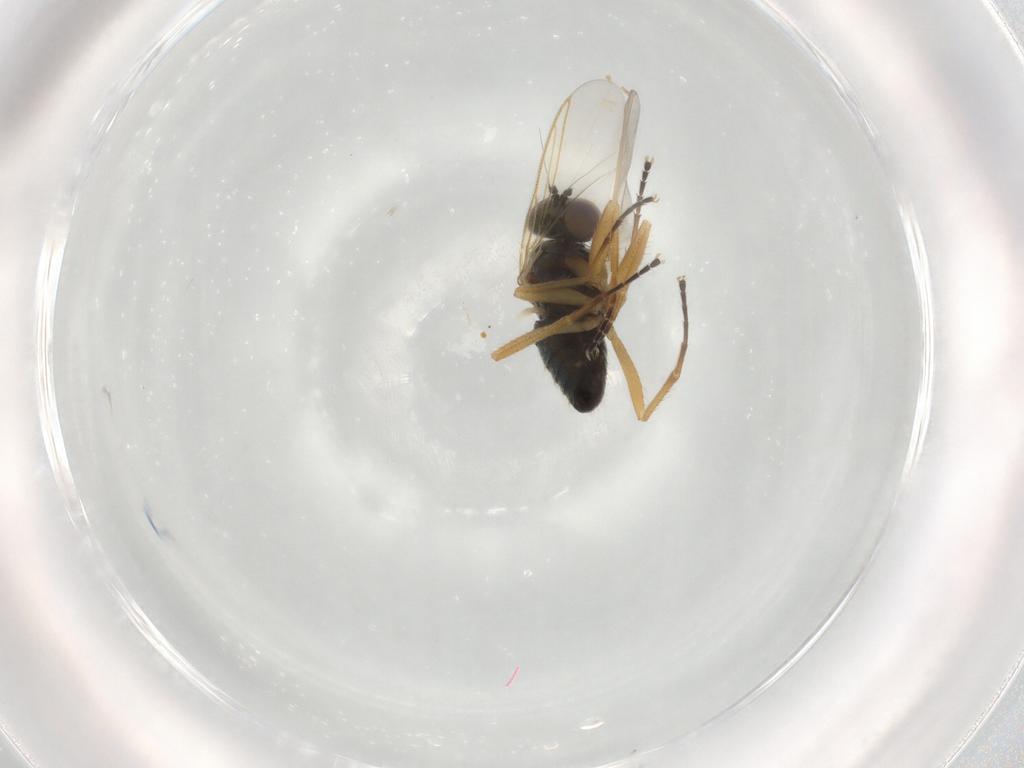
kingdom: Animalia
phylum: Arthropoda
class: Insecta
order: Diptera
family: Dolichopodidae
